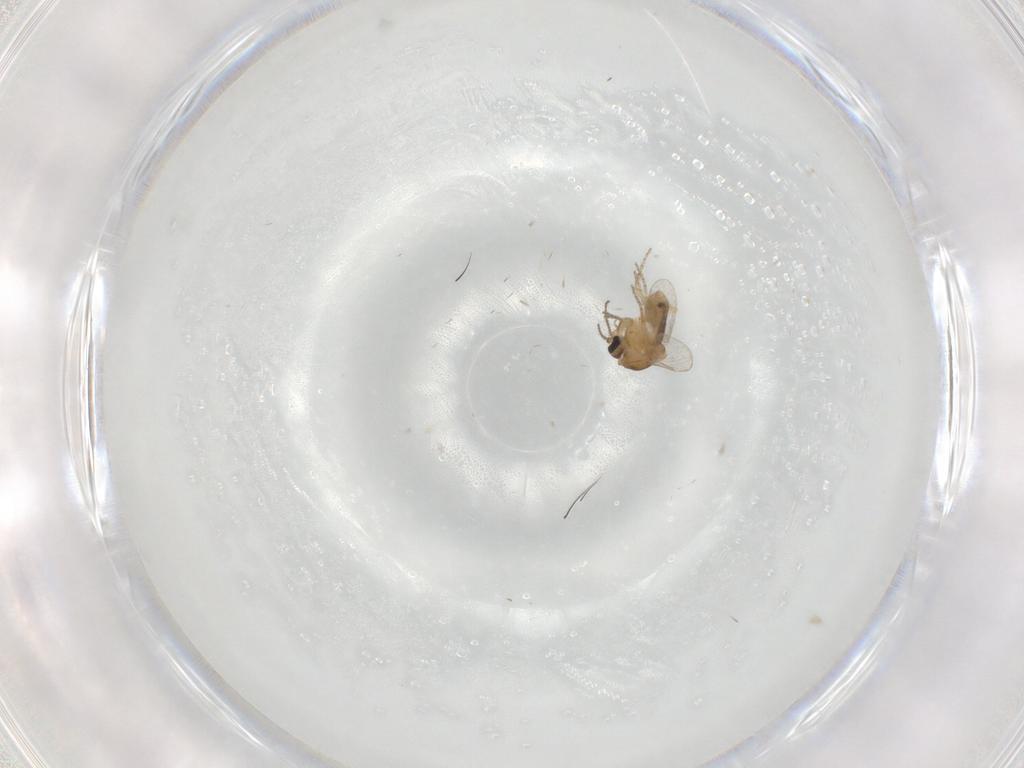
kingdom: Animalia
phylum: Arthropoda
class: Insecta
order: Diptera
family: Ceratopogonidae
